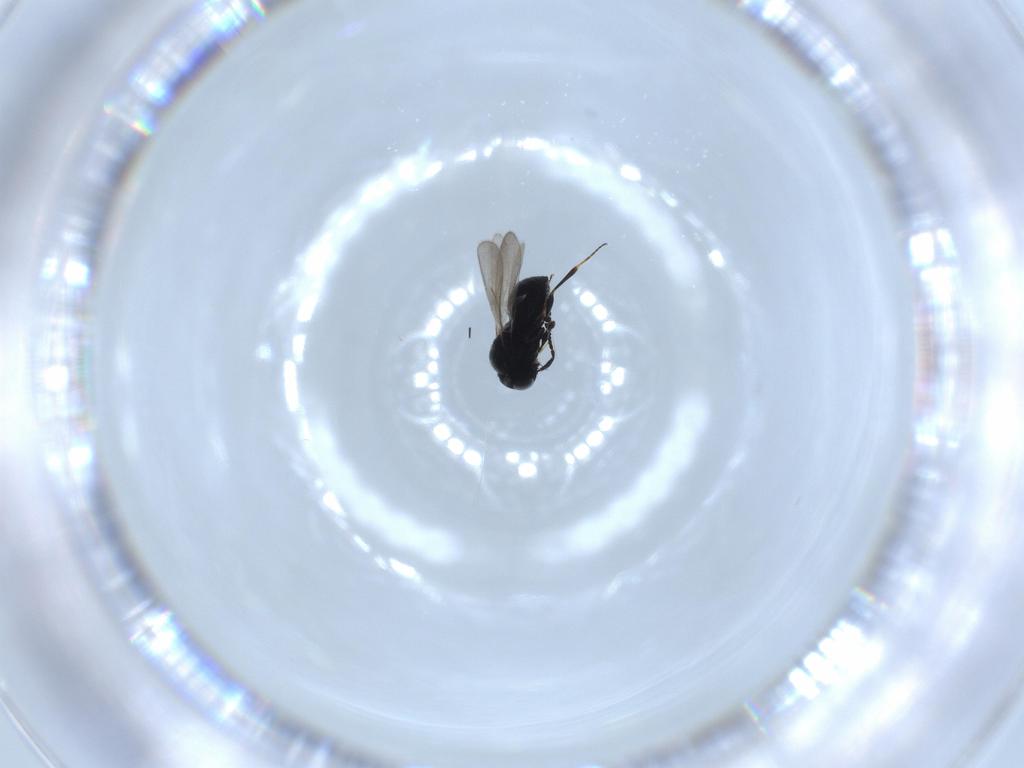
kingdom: Animalia
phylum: Arthropoda
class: Insecta
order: Hymenoptera
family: Scelionidae
